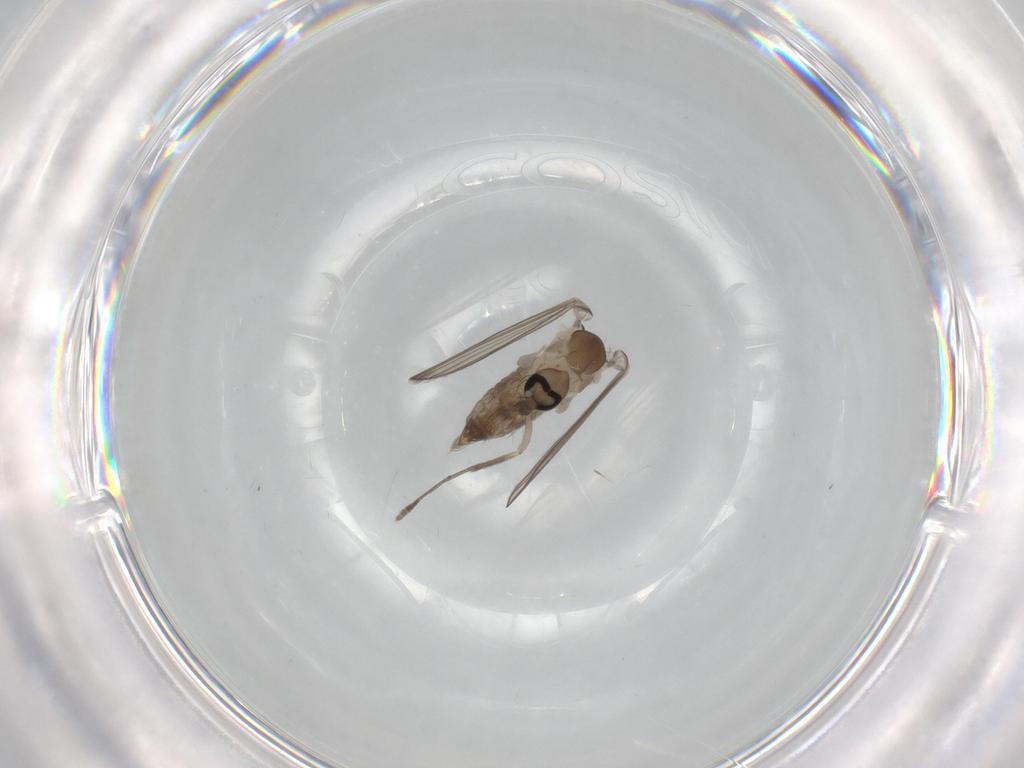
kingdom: Animalia
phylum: Arthropoda
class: Insecta
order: Diptera
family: Psychodidae
